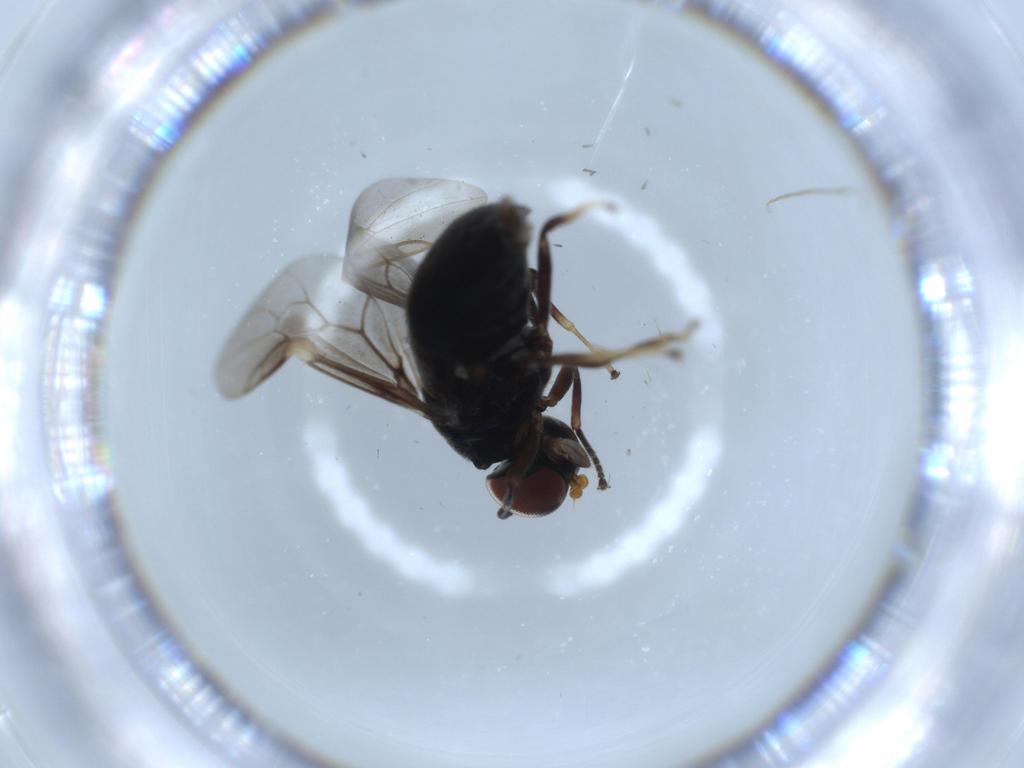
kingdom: Animalia
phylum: Arthropoda
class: Insecta
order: Diptera
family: Stratiomyidae
